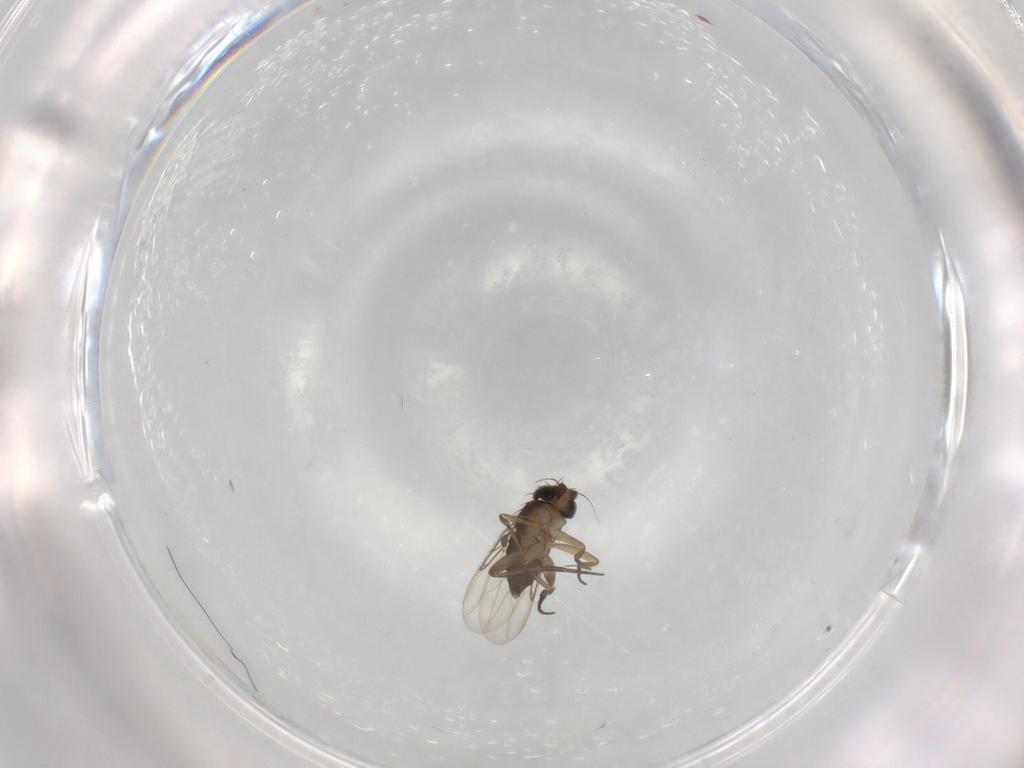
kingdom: Animalia
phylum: Arthropoda
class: Insecta
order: Diptera
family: Phoridae
